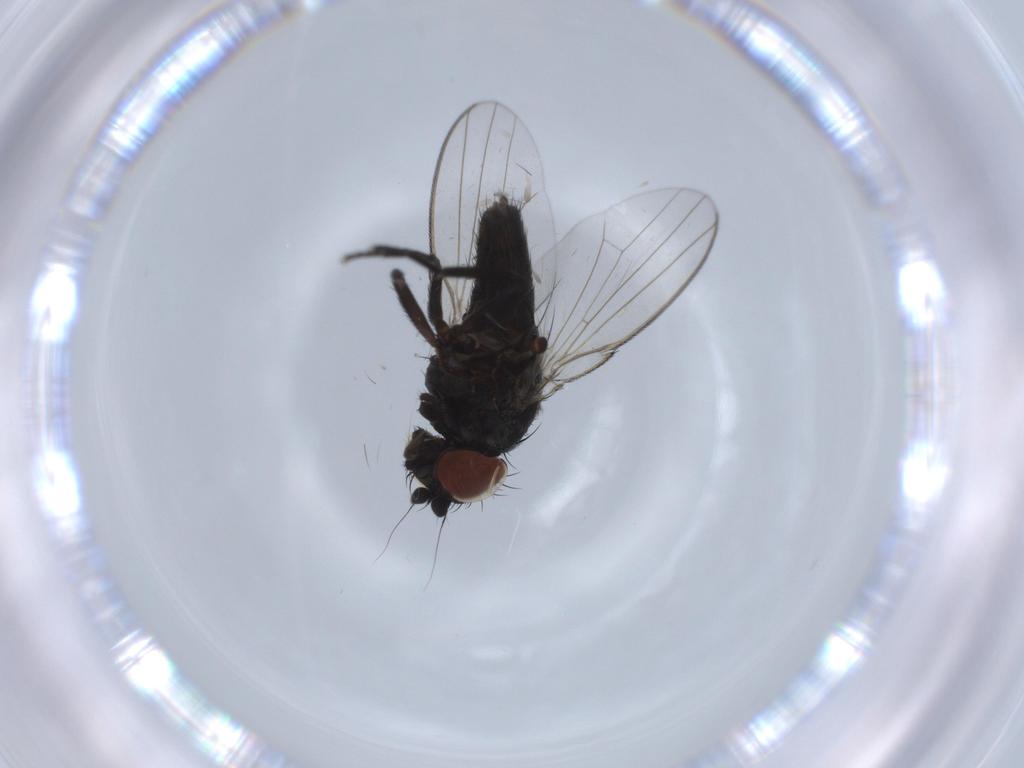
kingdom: Animalia
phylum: Arthropoda
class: Insecta
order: Diptera
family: Milichiidae
